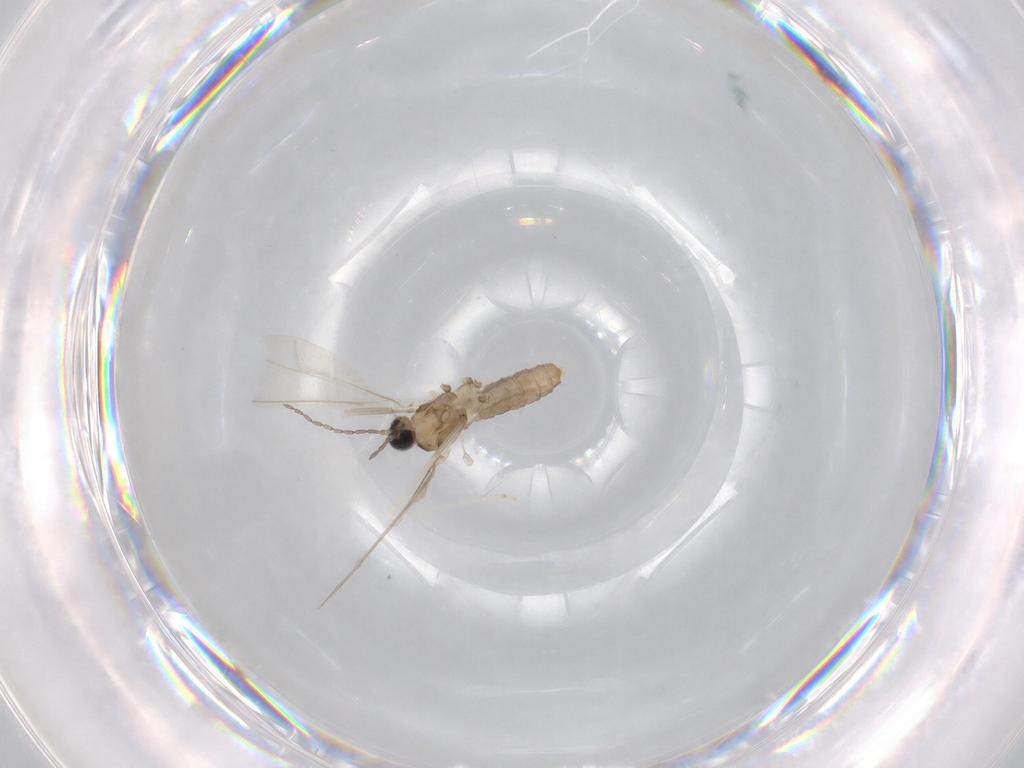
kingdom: Animalia
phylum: Arthropoda
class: Insecta
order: Diptera
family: Cecidomyiidae
